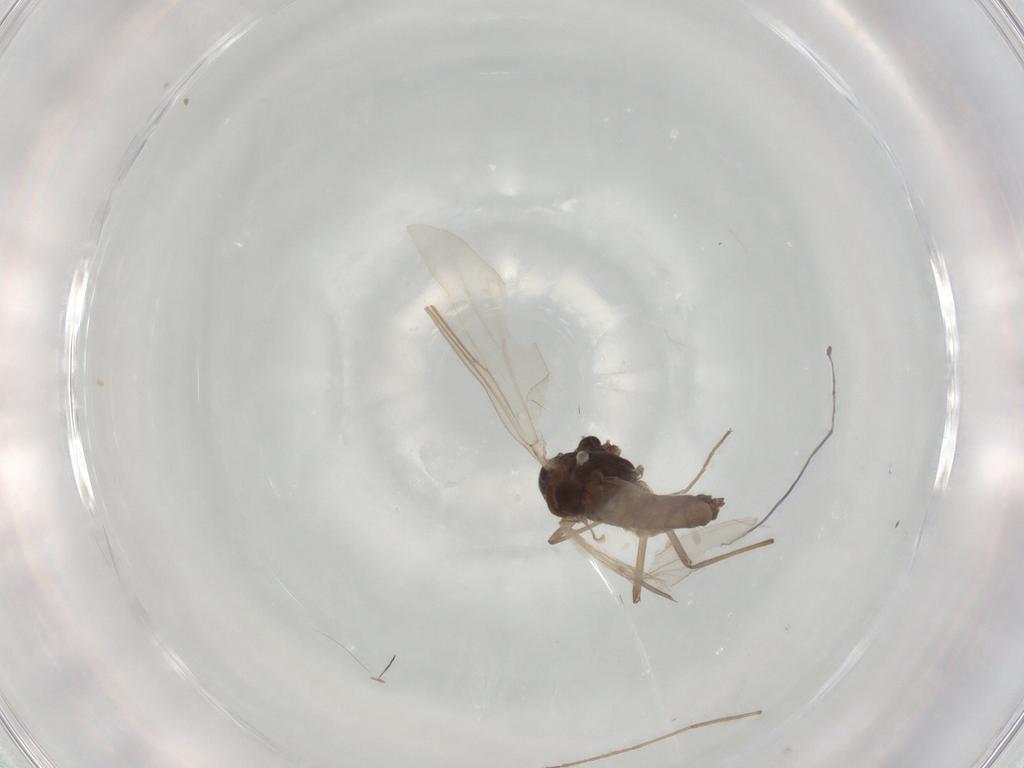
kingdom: Animalia
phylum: Arthropoda
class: Insecta
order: Diptera
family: Chironomidae
